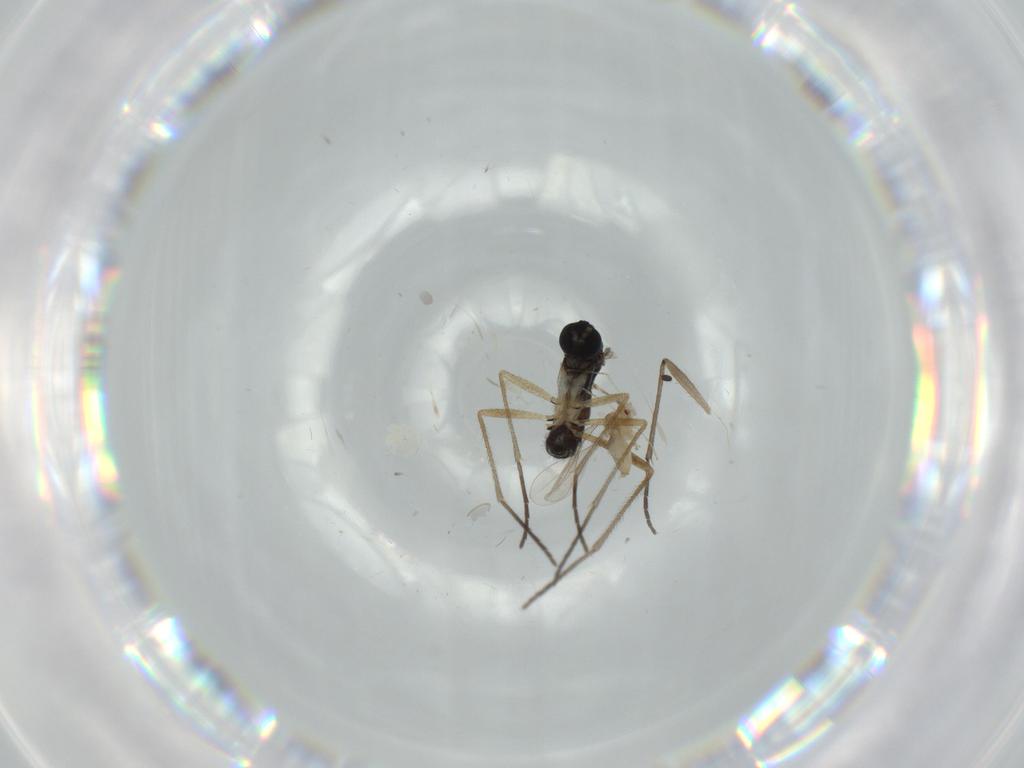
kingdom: Animalia
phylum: Arthropoda
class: Insecta
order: Diptera
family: Sciaridae
